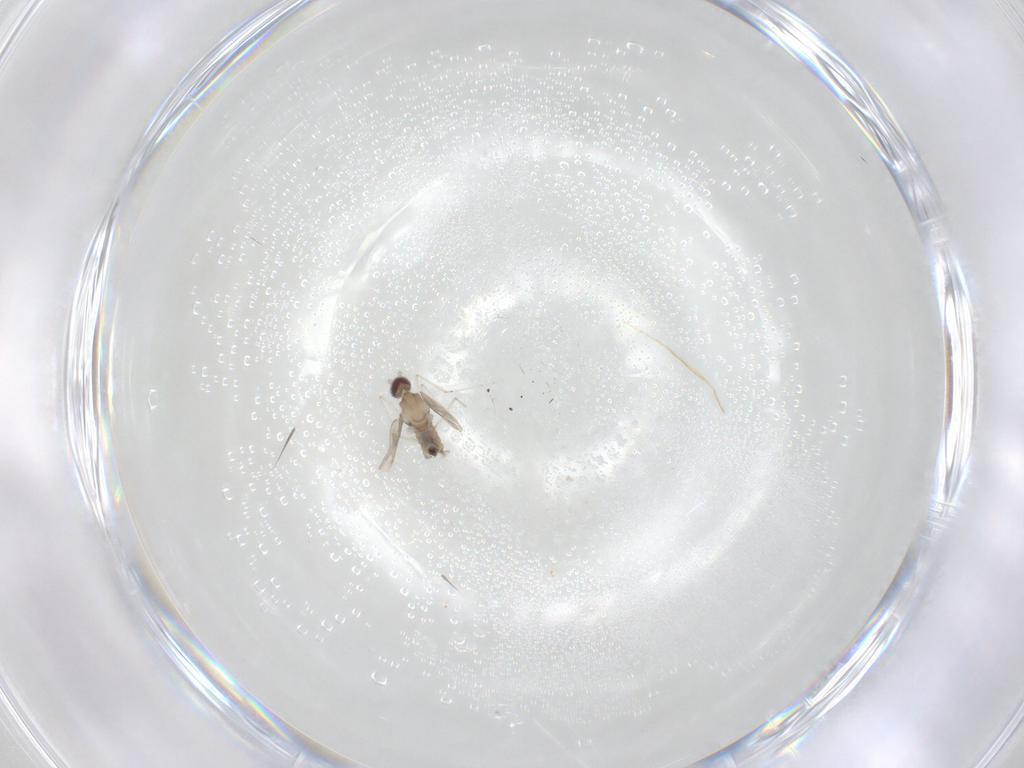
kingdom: Animalia
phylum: Arthropoda
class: Insecta
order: Diptera
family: Cecidomyiidae
